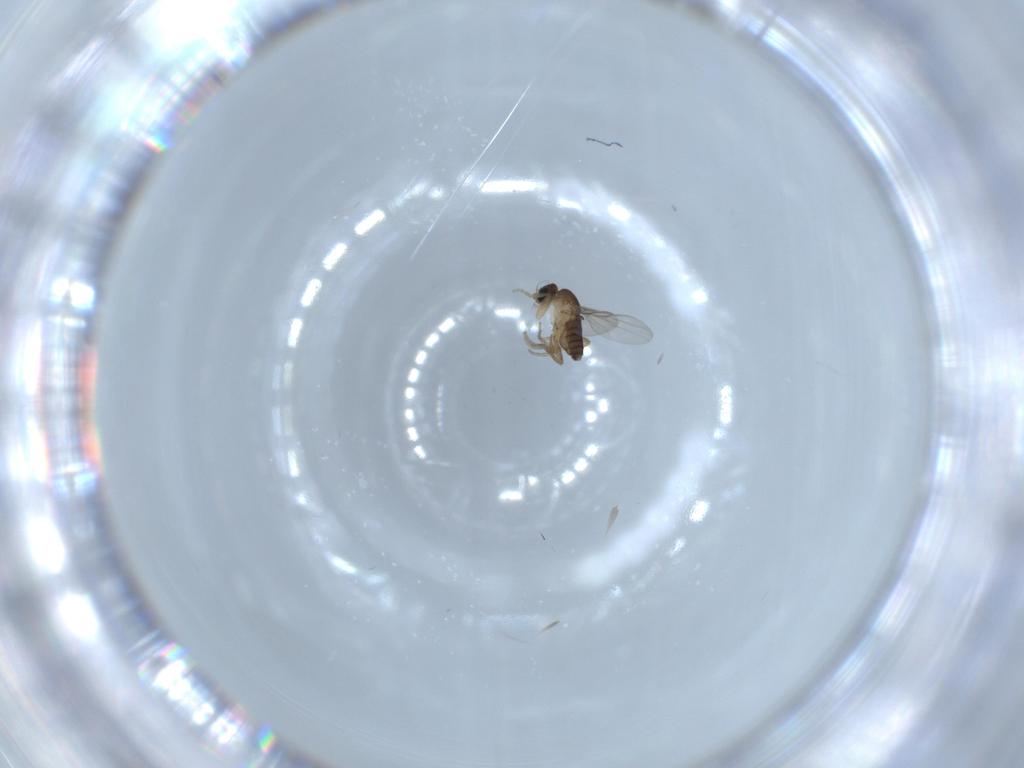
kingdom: Animalia
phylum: Arthropoda
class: Insecta
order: Diptera
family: Phoridae
